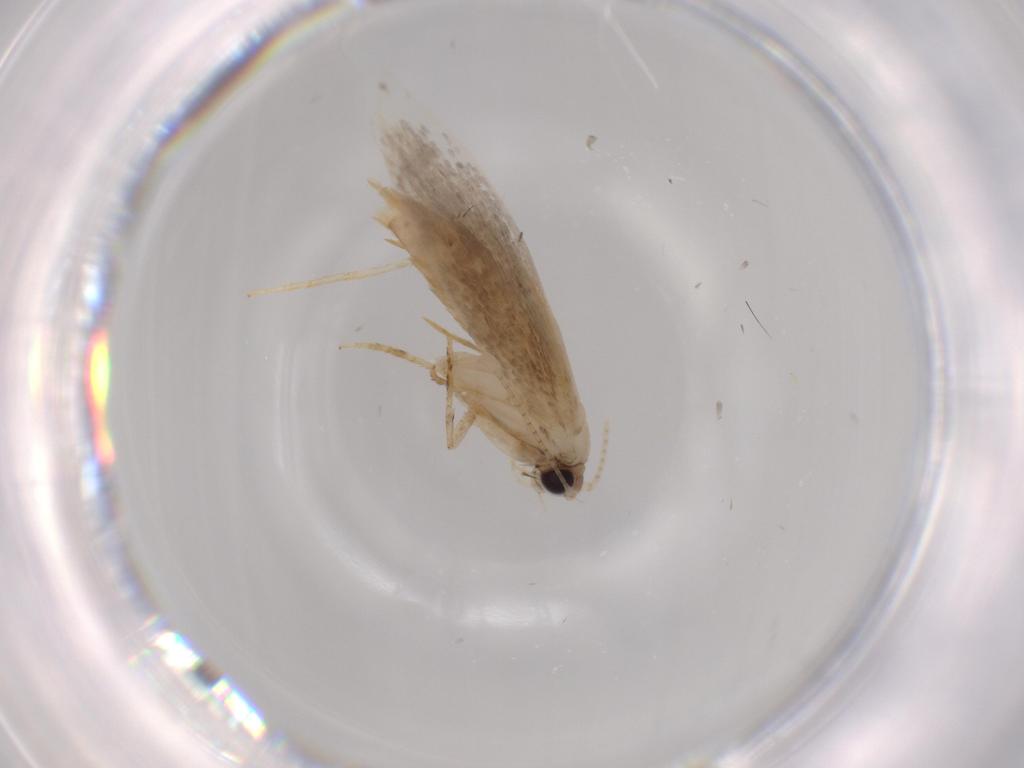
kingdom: Animalia
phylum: Arthropoda
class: Insecta
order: Lepidoptera
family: Tineidae
